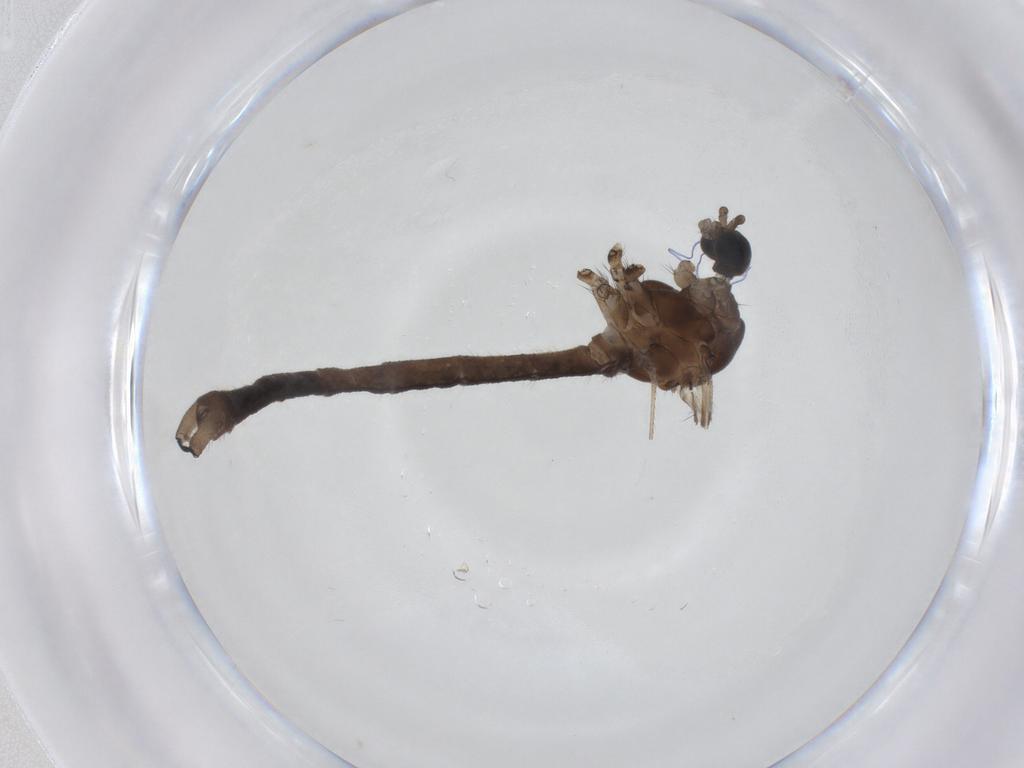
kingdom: Animalia
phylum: Arthropoda
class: Insecta
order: Diptera
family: Limoniidae
